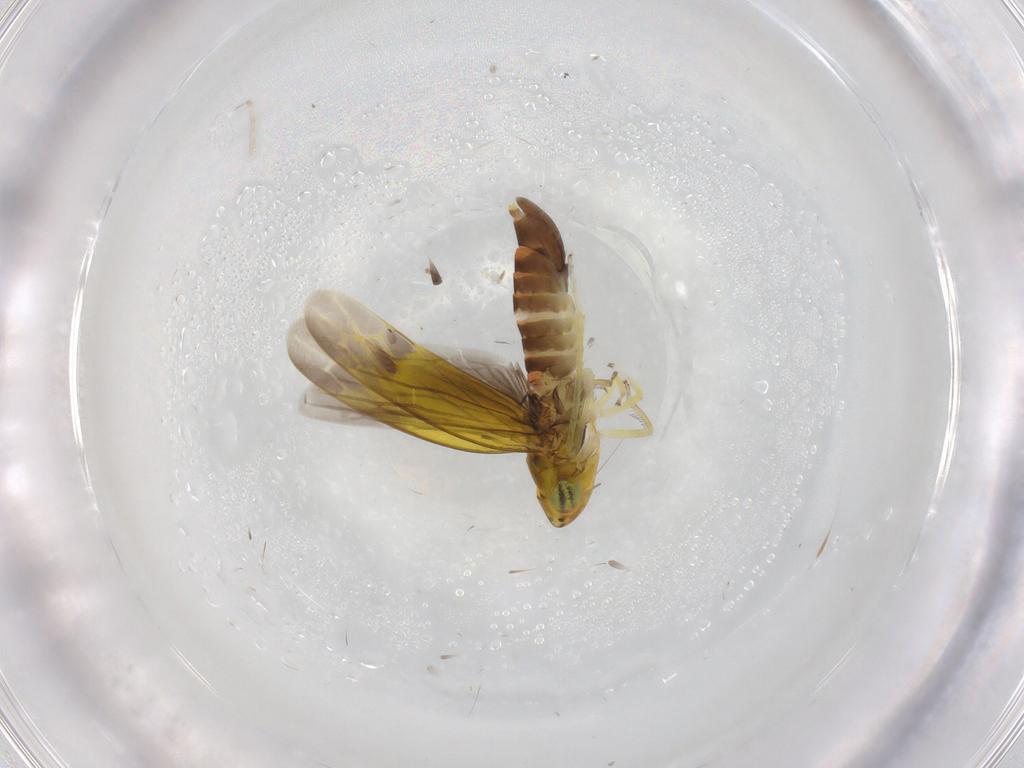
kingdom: Animalia
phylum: Arthropoda
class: Insecta
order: Hemiptera
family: Cicadellidae
